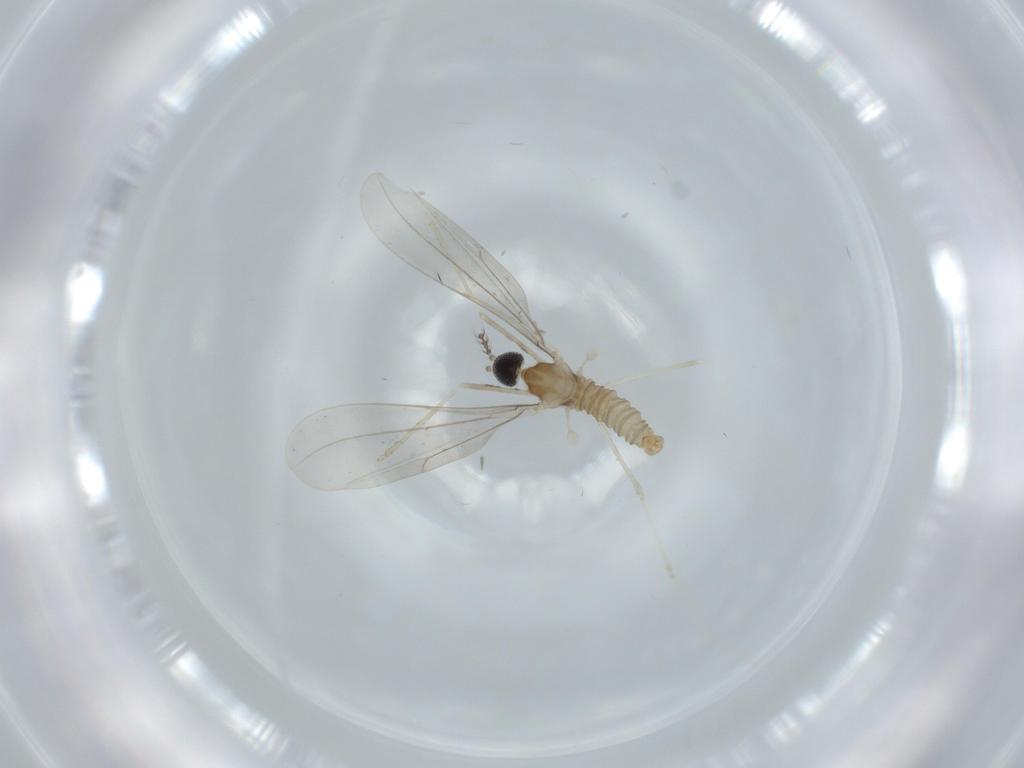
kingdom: Animalia
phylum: Arthropoda
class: Insecta
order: Diptera
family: Cecidomyiidae
